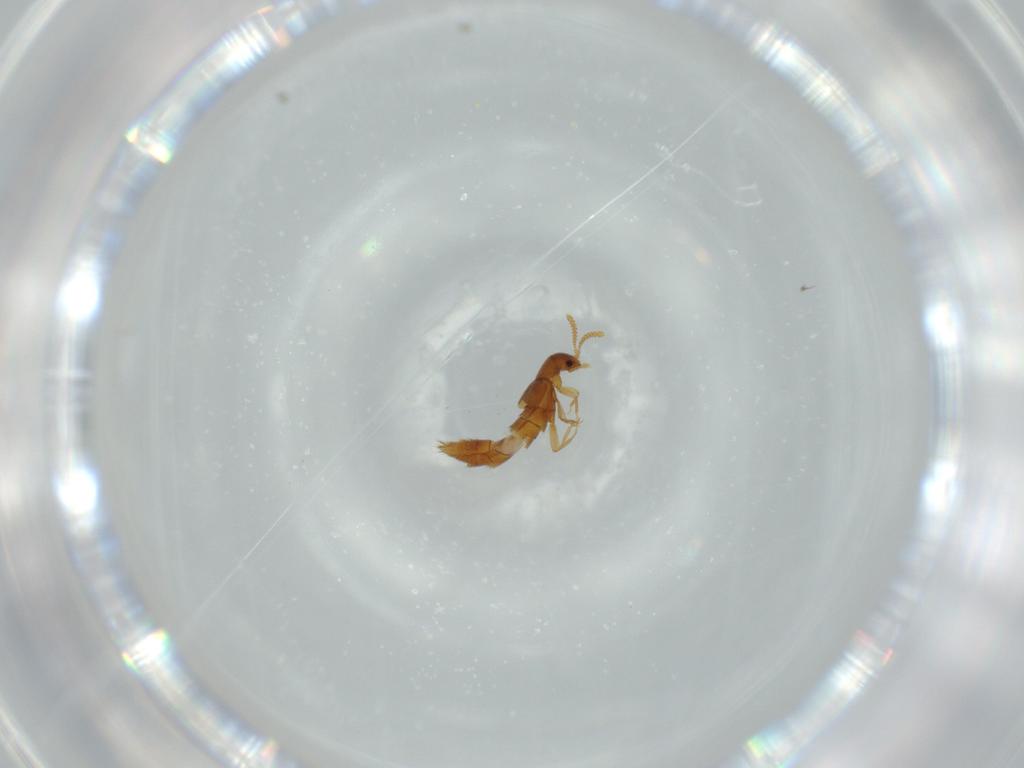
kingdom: Animalia
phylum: Arthropoda
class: Insecta
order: Coleoptera
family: Staphylinidae
